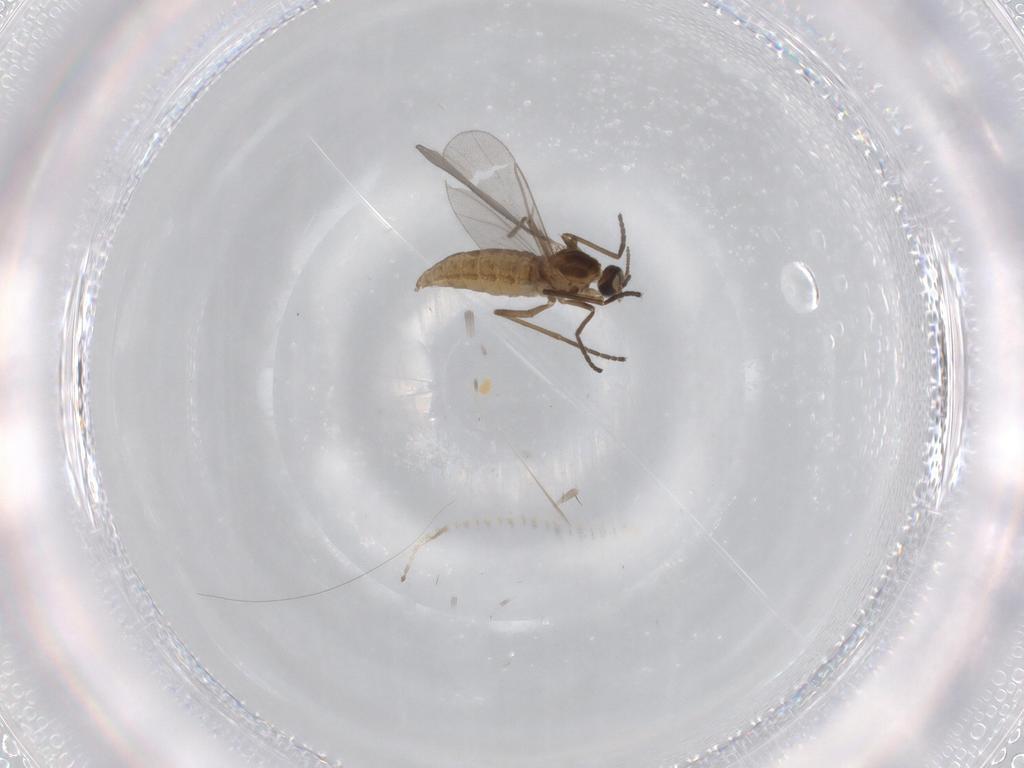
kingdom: Animalia
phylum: Arthropoda
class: Insecta
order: Diptera
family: Cecidomyiidae
